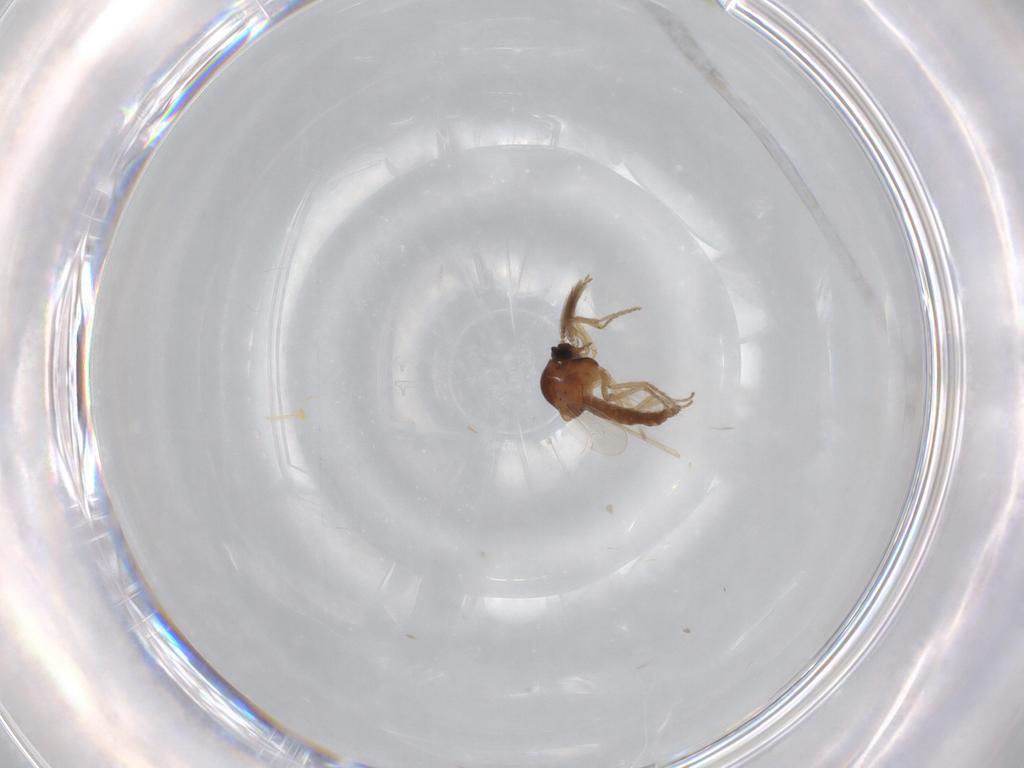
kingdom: Animalia
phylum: Arthropoda
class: Insecta
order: Diptera
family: Ceratopogonidae
